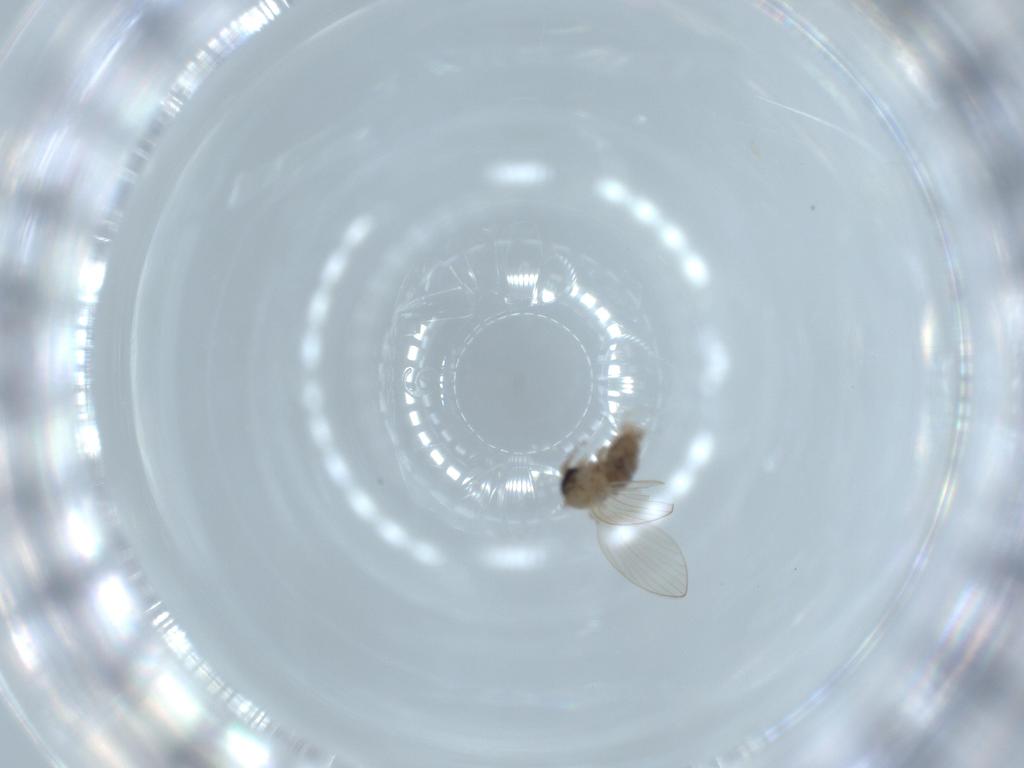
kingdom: Animalia
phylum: Arthropoda
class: Insecta
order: Diptera
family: Psychodidae
